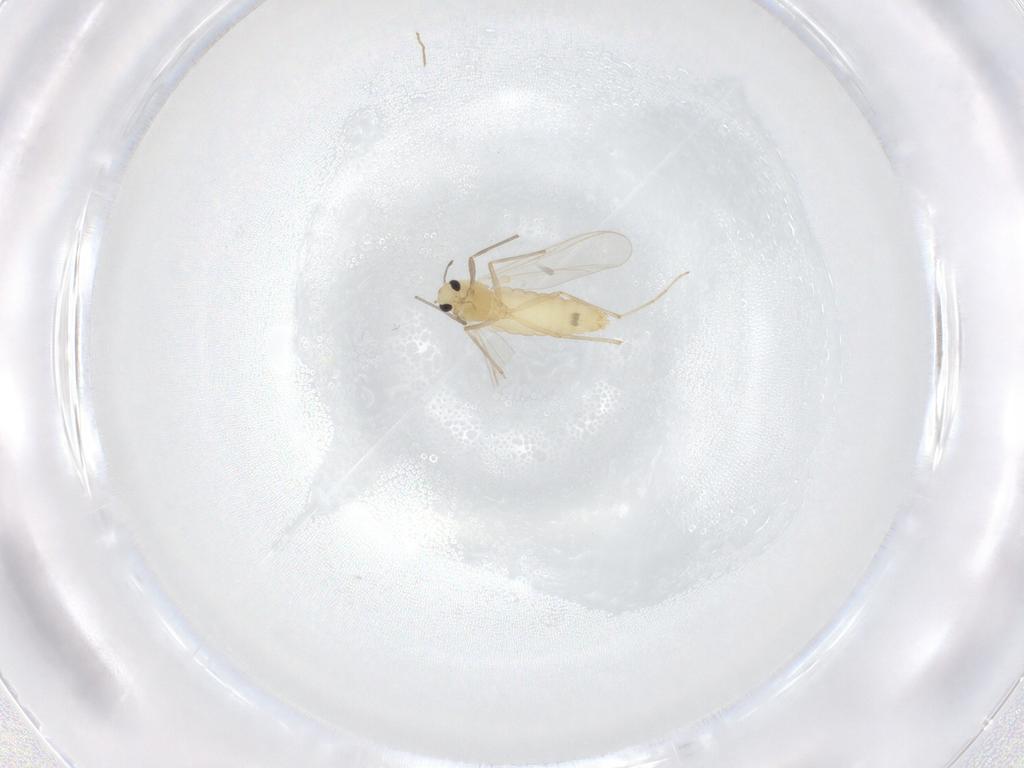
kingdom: Animalia
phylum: Arthropoda
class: Insecta
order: Diptera
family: Chironomidae
